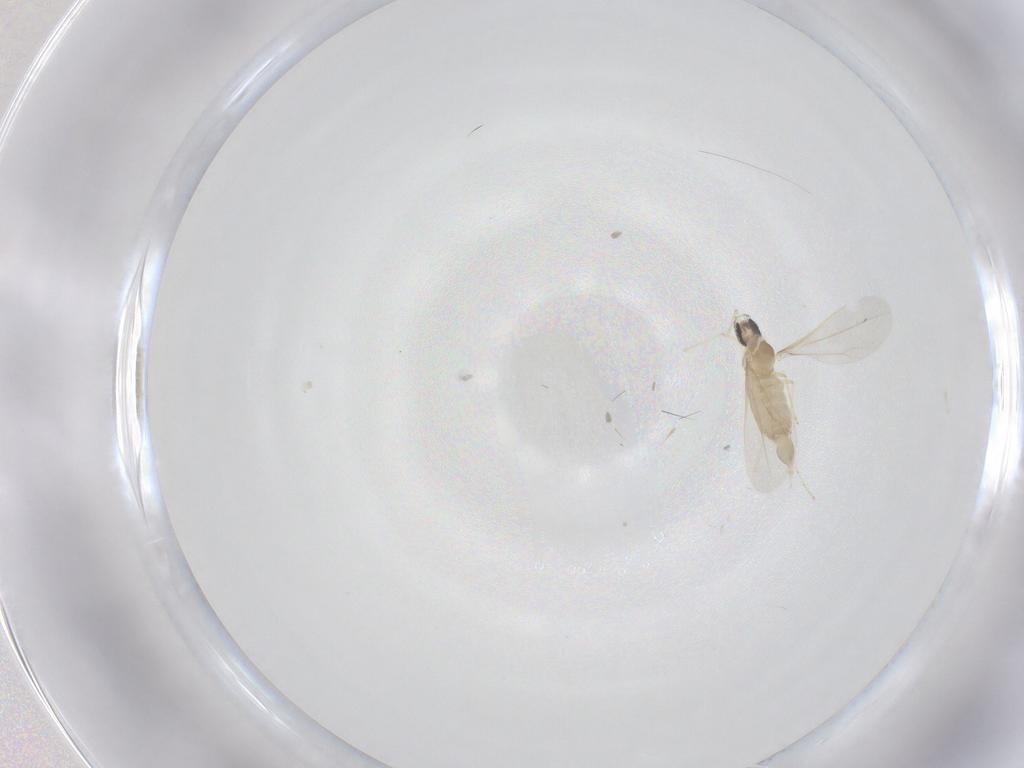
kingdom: Animalia
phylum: Arthropoda
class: Insecta
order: Diptera
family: Cecidomyiidae
